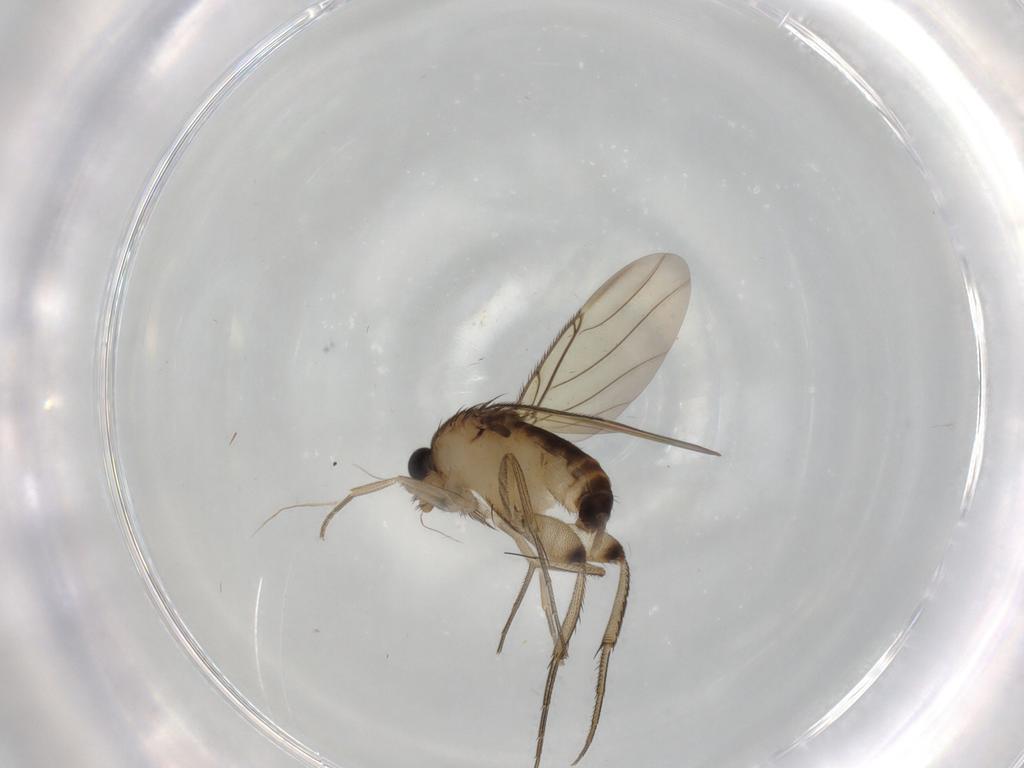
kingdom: Animalia
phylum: Arthropoda
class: Insecta
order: Diptera
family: Phoridae
